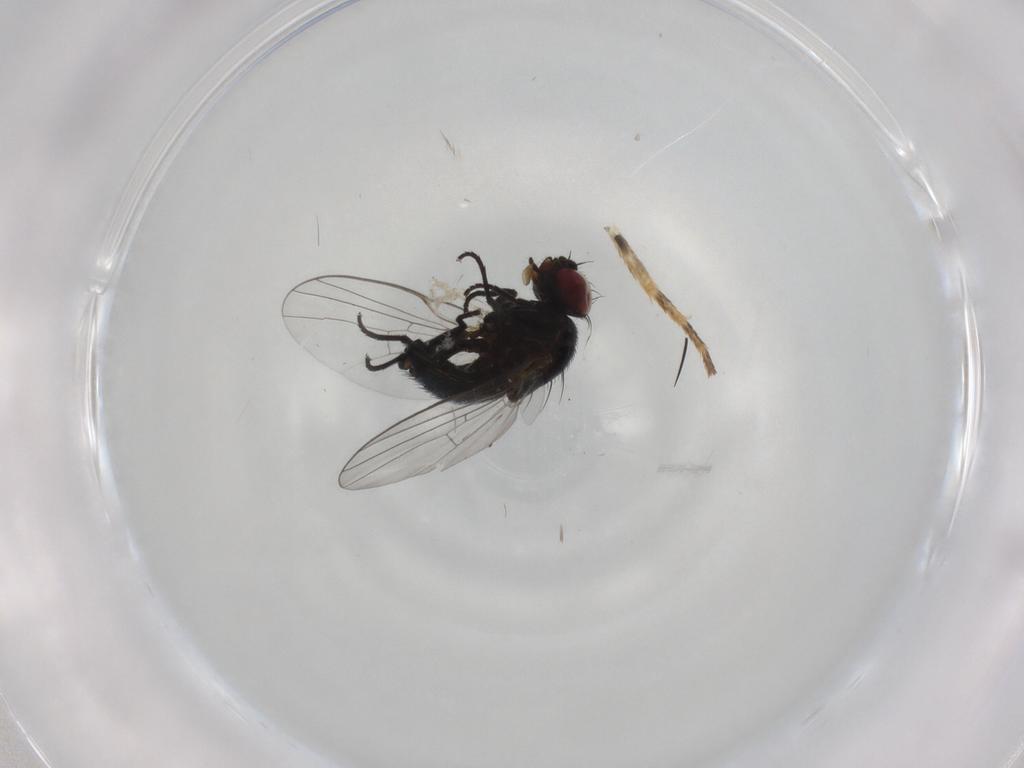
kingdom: Animalia
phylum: Arthropoda
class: Insecta
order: Diptera
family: Agromyzidae
